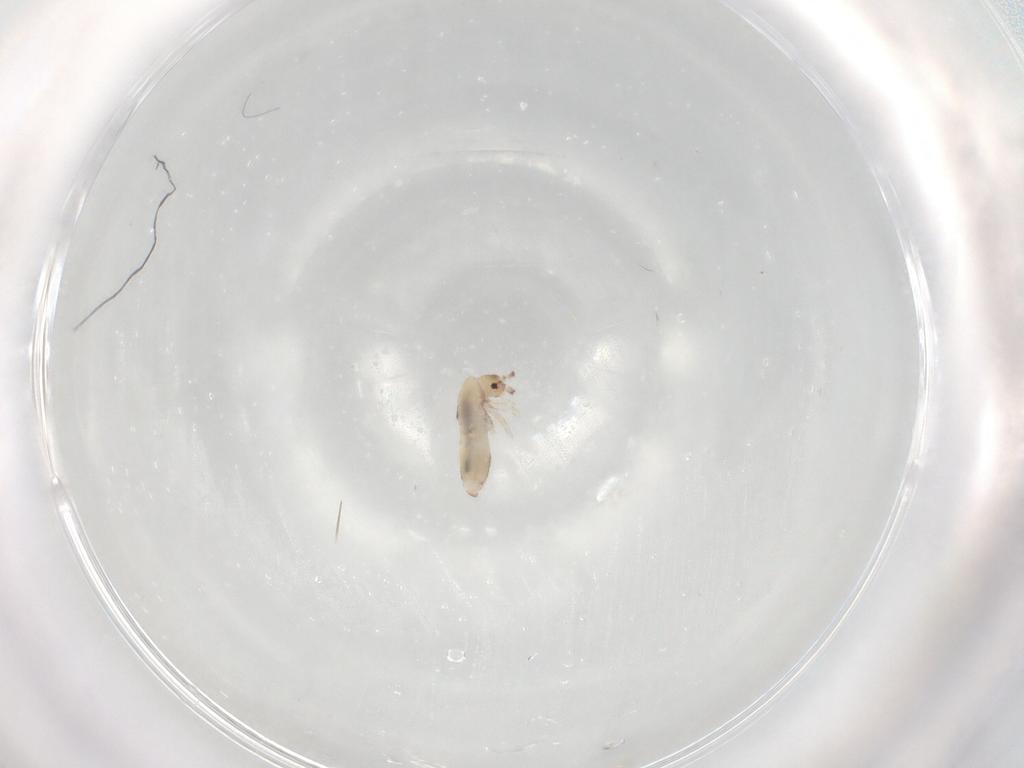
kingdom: Animalia
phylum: Arthropoda
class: Collembola
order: Entomobryomorpha
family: Entomobryidae
